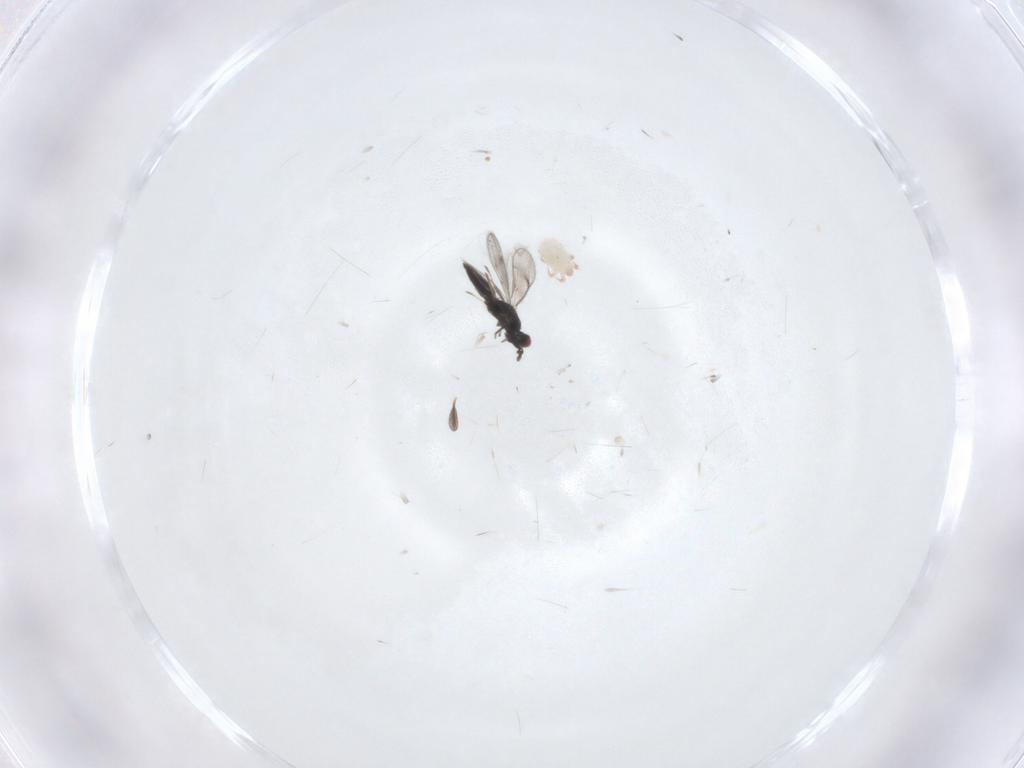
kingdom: Animalia
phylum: Arthropoda
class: Insecta
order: Hymenoptera
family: Eulophidae
